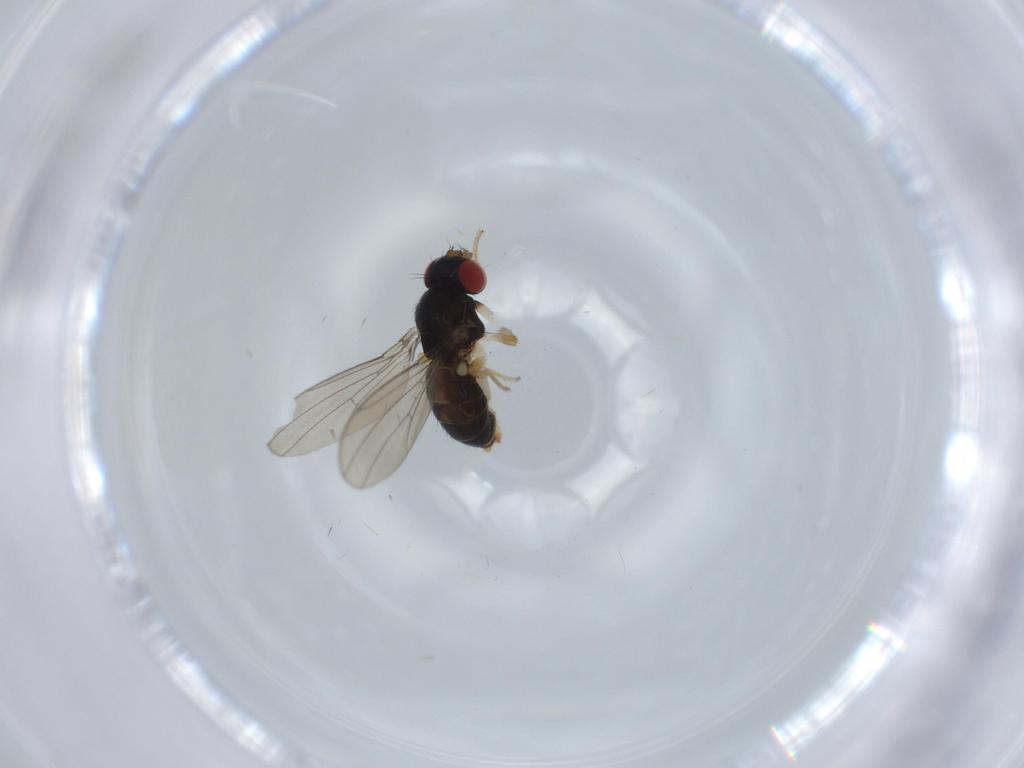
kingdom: Animalia
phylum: Arthropoda
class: Insecta
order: Diptera
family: Drosophilidae
